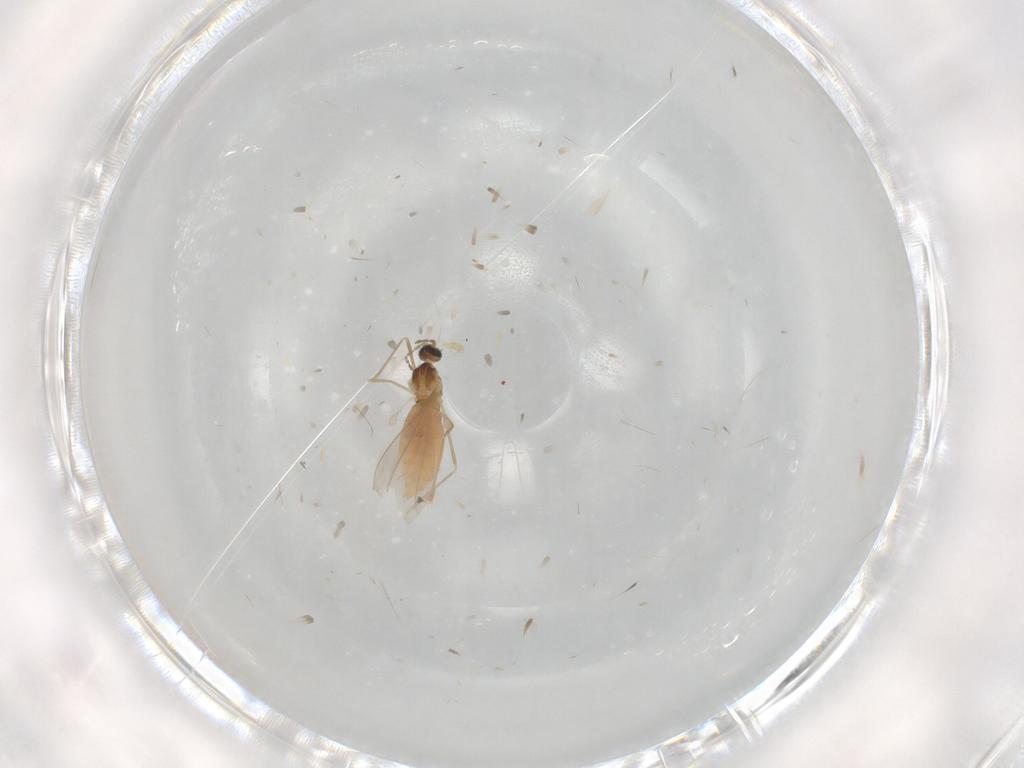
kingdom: Animalia
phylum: Arthropoda
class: Insecta
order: Diptera
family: Cecidomyiidae
